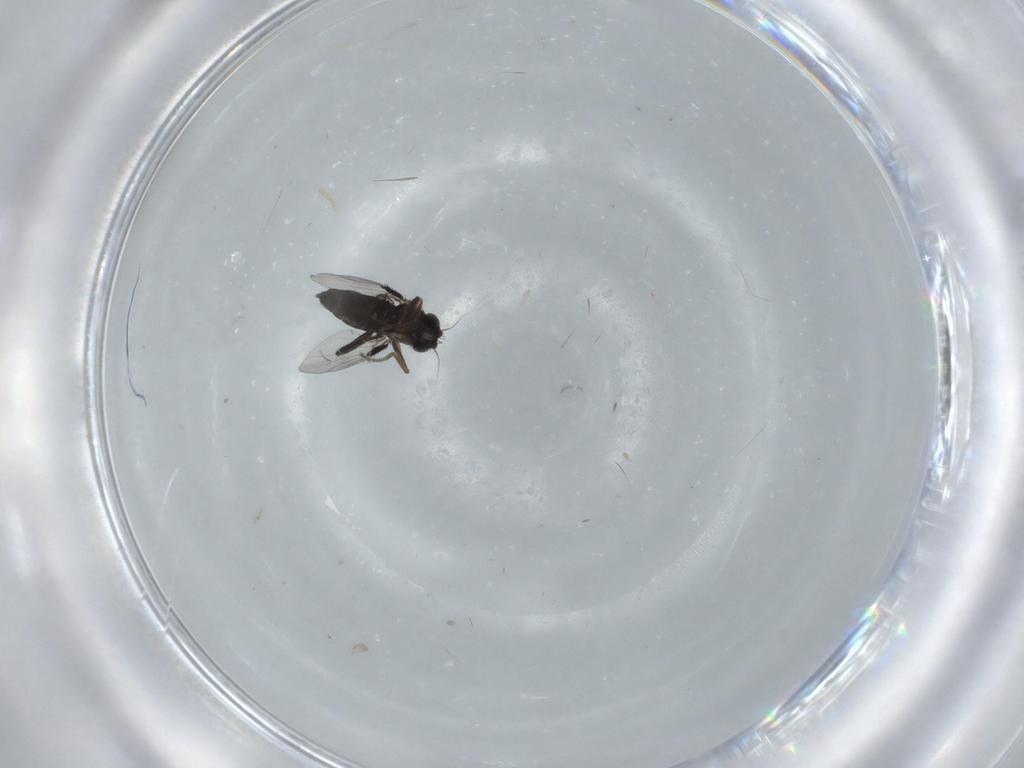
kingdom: Animalia
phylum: Arthropoda
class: Insecta
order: Diptera
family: Phoridae
